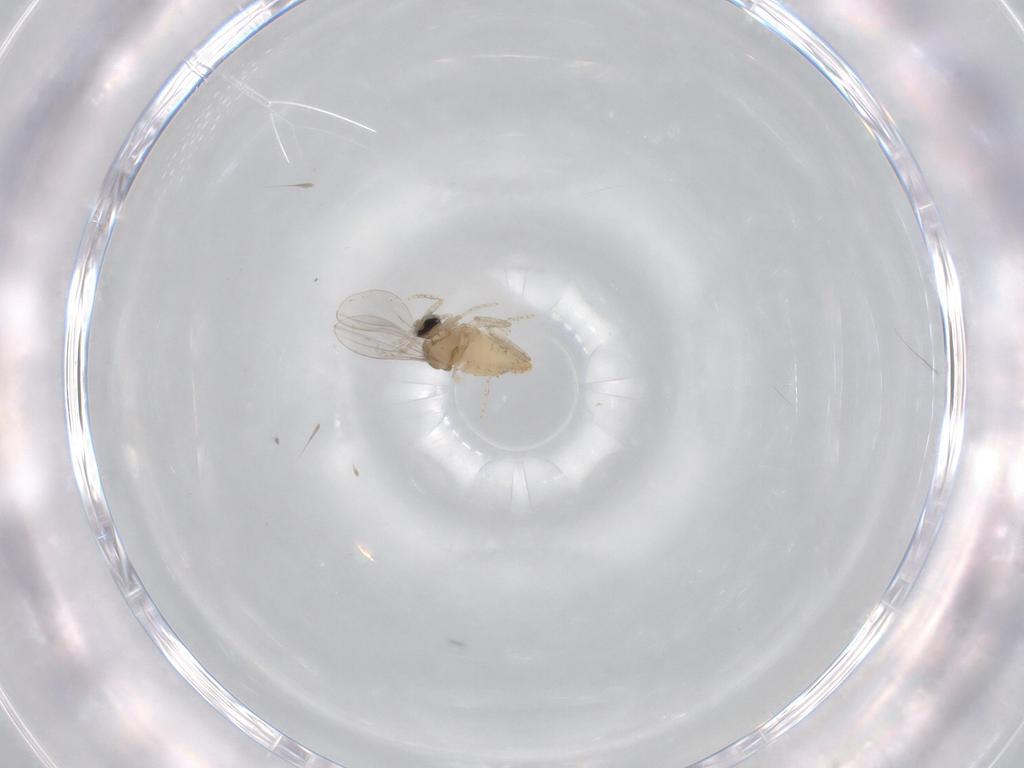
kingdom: Animalia
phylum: Arthropoda
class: Insecta
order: Diptera
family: Cecidomyiidae
